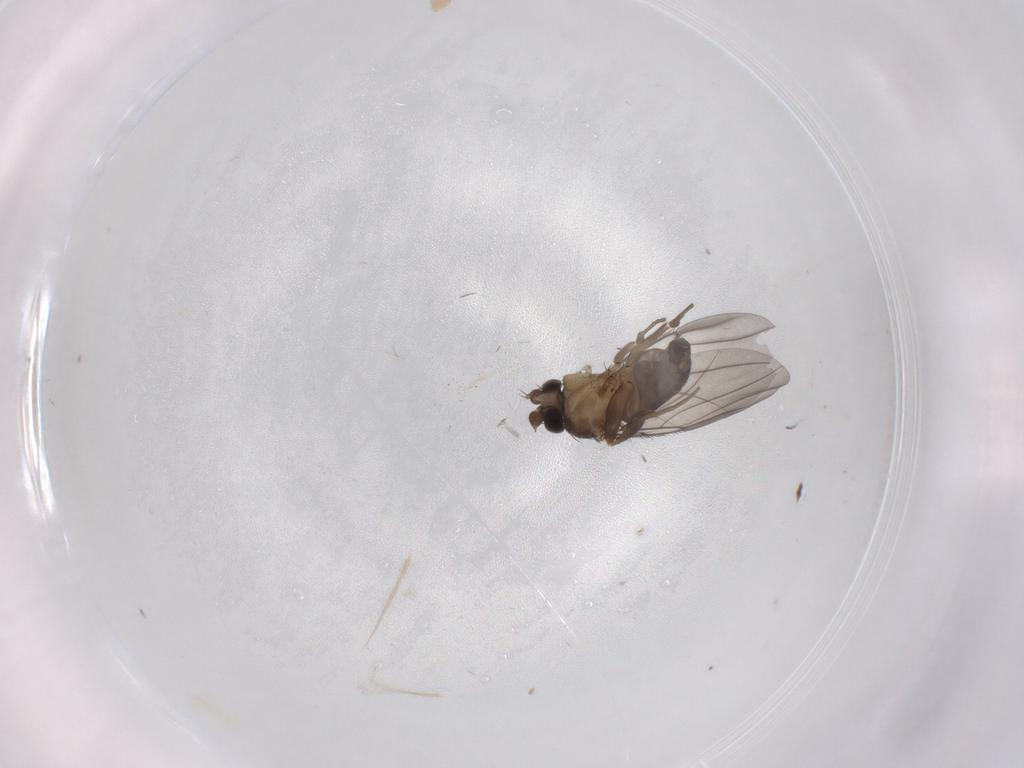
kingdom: Animalia
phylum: Arthropoda
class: Insecta
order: Diptera
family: Phoridae
